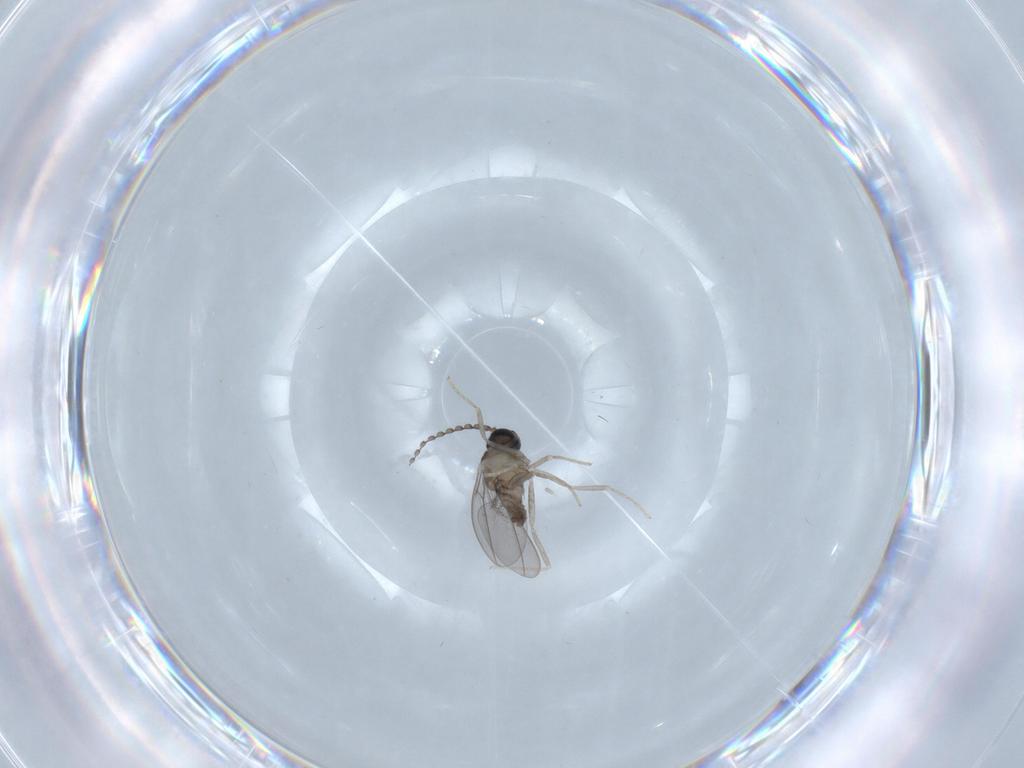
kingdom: Animalia
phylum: Arthropoda
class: Insecta
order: Diptera
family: Cecidomyiidae
